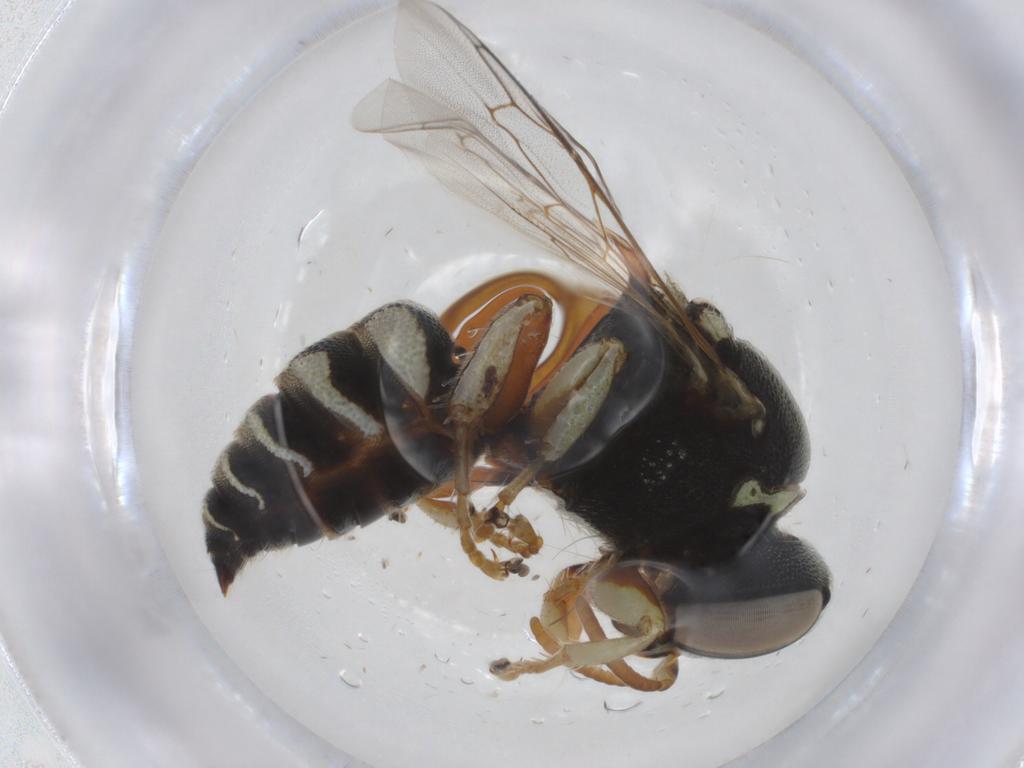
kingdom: Animalia
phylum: Arthropoda
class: Insecta
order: Hymenoptera
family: Crabronidae
